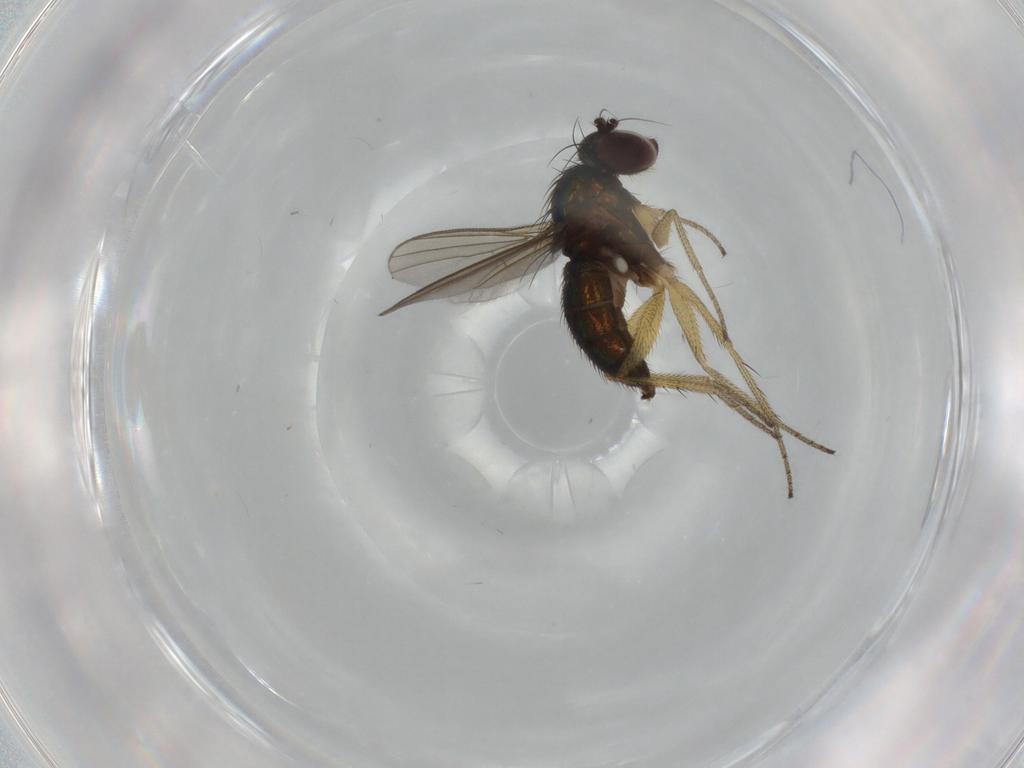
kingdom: Animalia
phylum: Arthropoda
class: Insecta
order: Diptera
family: Dolichopodidae
